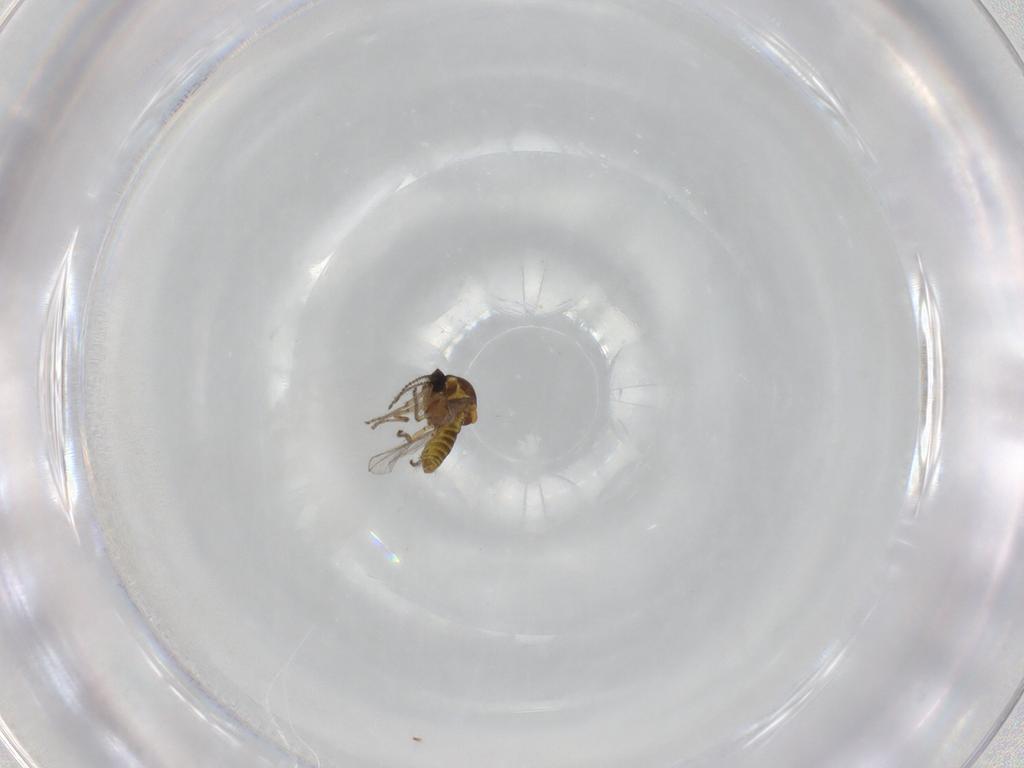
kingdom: Animalia
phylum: Arthropoda
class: Insecta
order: Diptera
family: Ceratopogonidae
